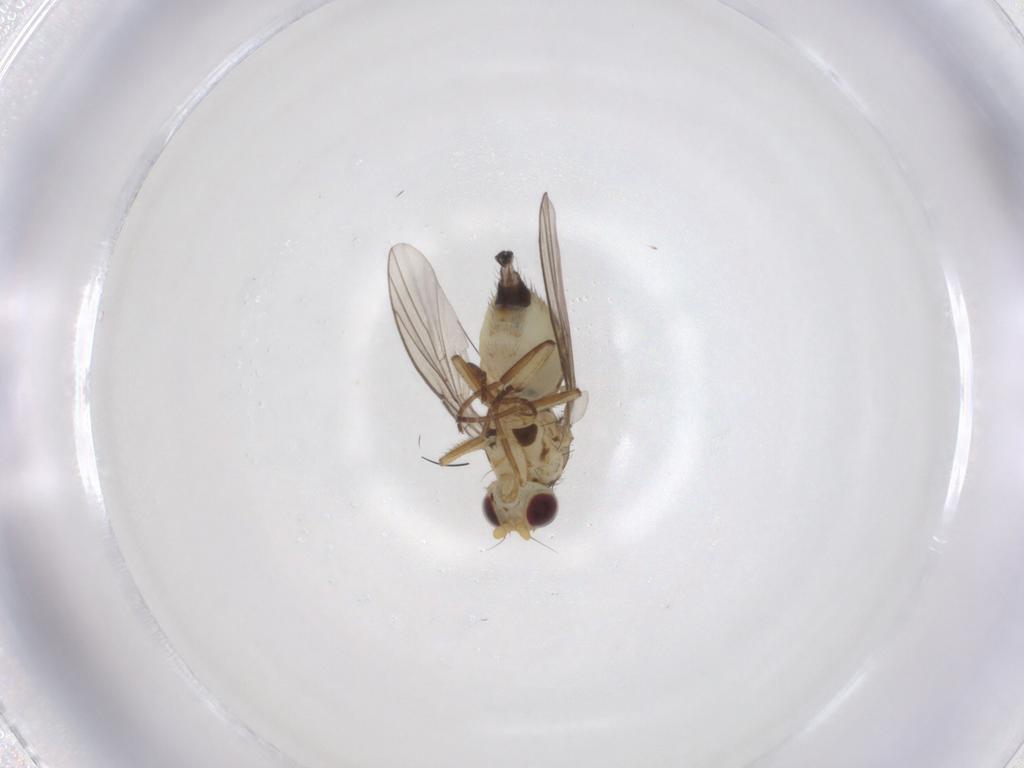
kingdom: Animalia
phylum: Arthropoda
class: Insecta
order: Diptera
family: Agromyzidae
